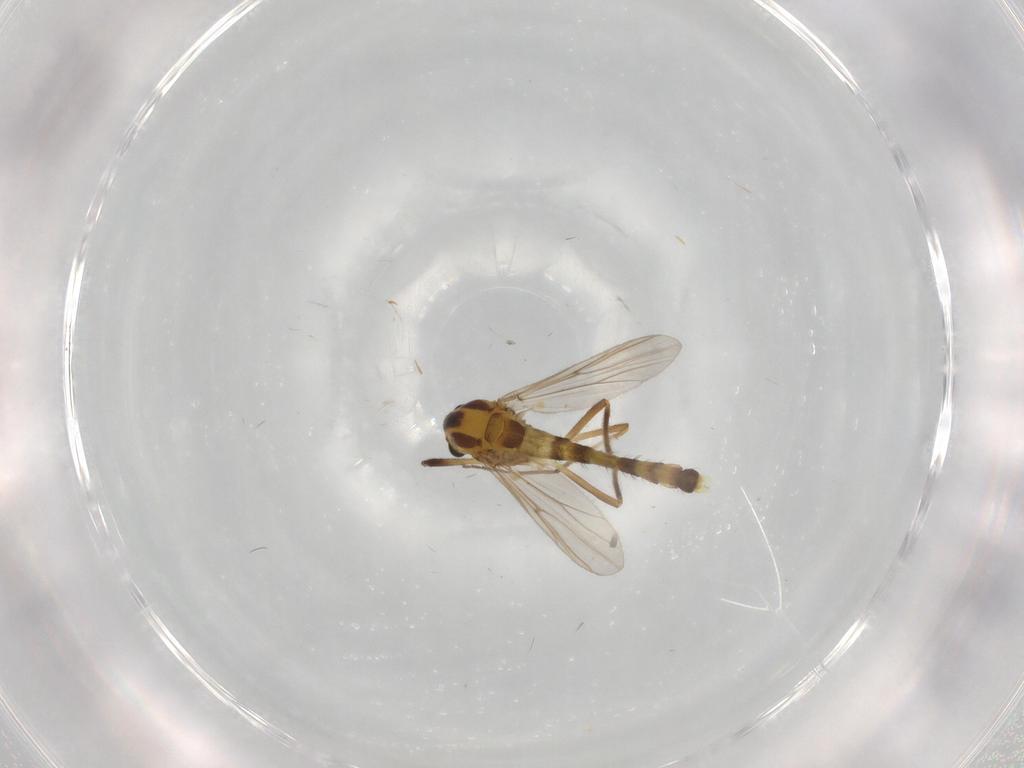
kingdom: Animalia
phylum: Arthropoda
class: Insecta
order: Diptera
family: Chironomidae
